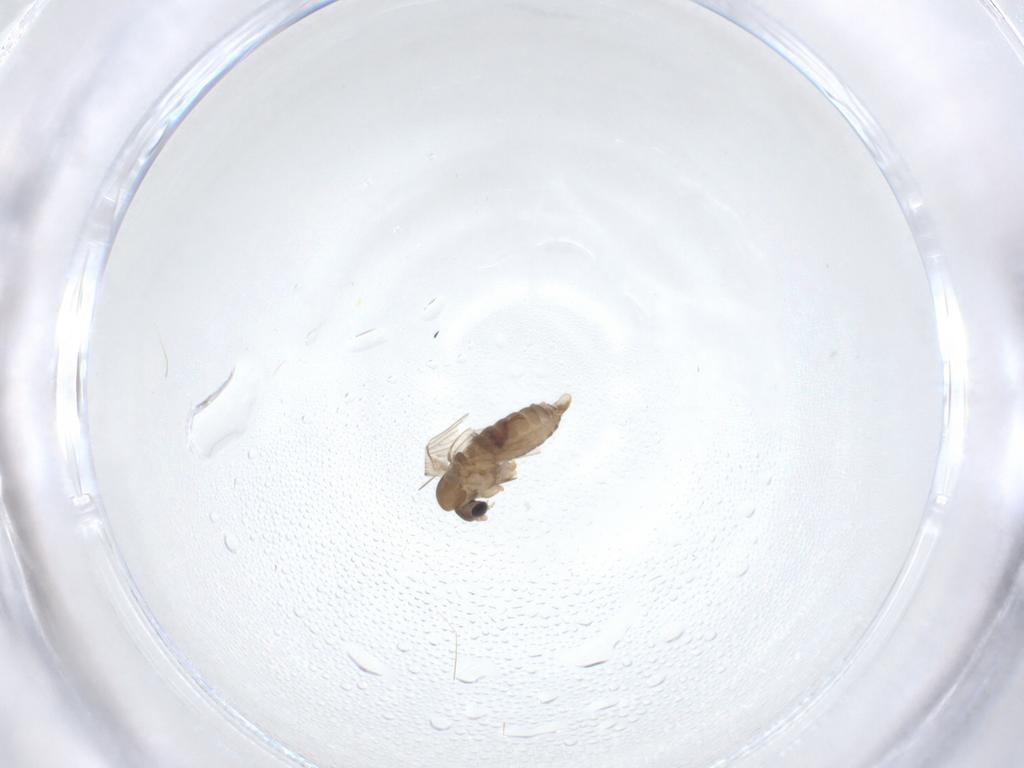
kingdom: Animalia
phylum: Arthropoda
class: Insecta
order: Diptera
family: Psychodidae
